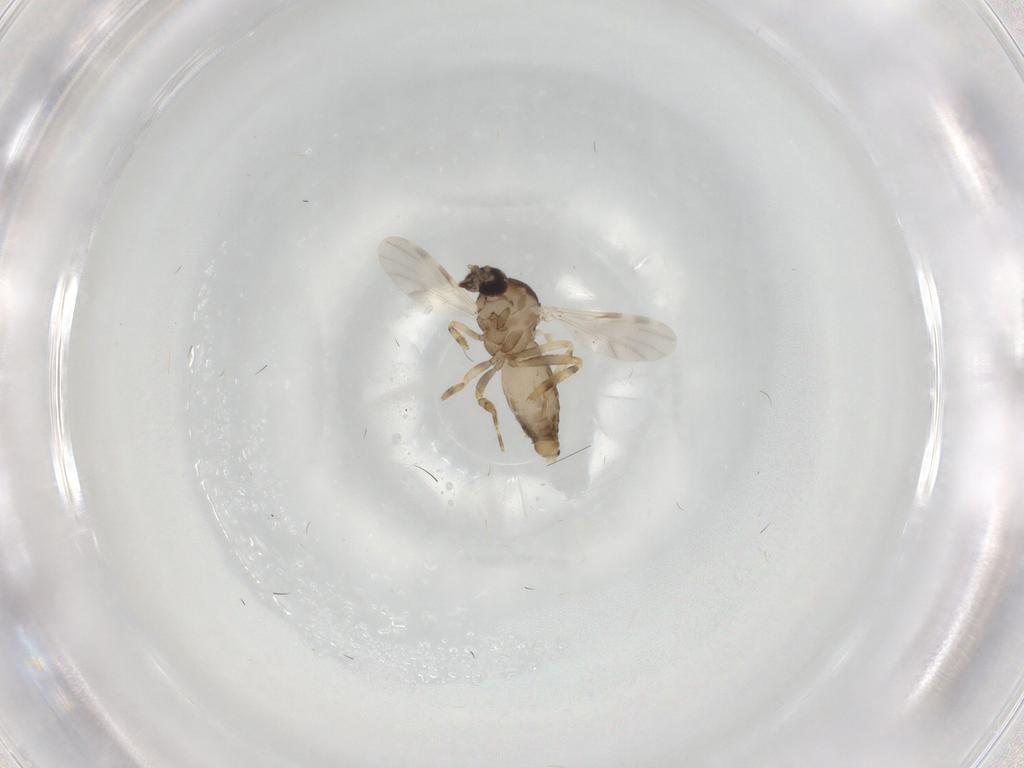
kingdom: Animalia
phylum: Arthropoda
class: Insecta
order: Diptera
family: Ceratopogonidae
